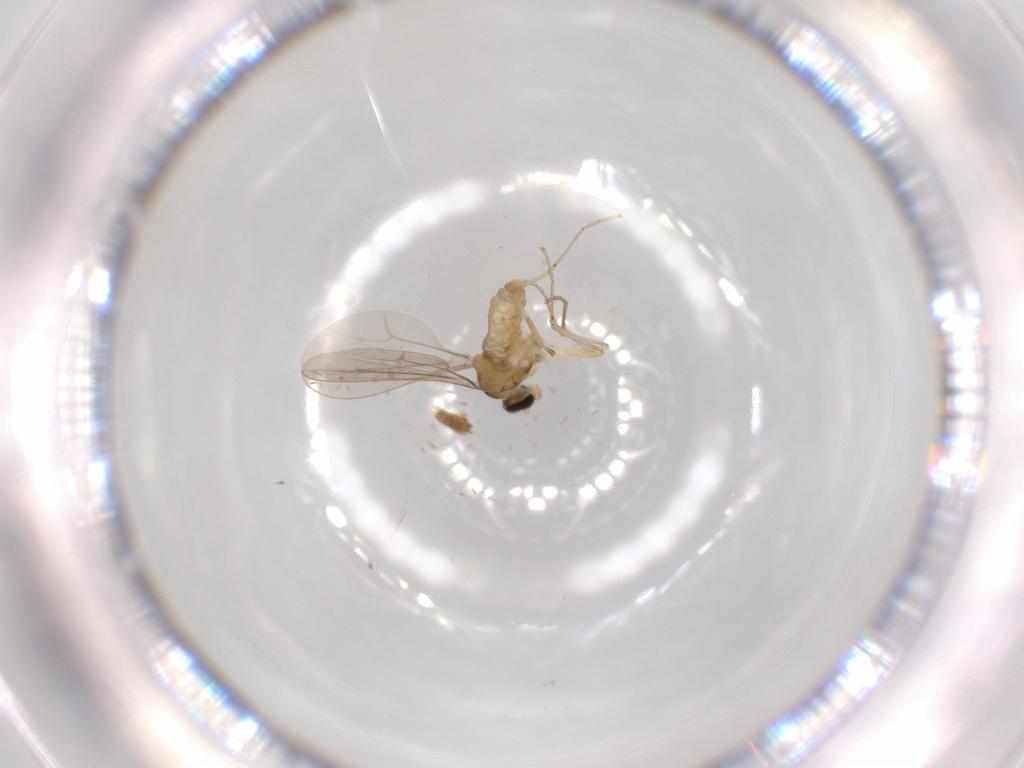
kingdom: Animalia
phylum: Arthropoda
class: Insecta
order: Diptera
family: Cecidomyiidae
